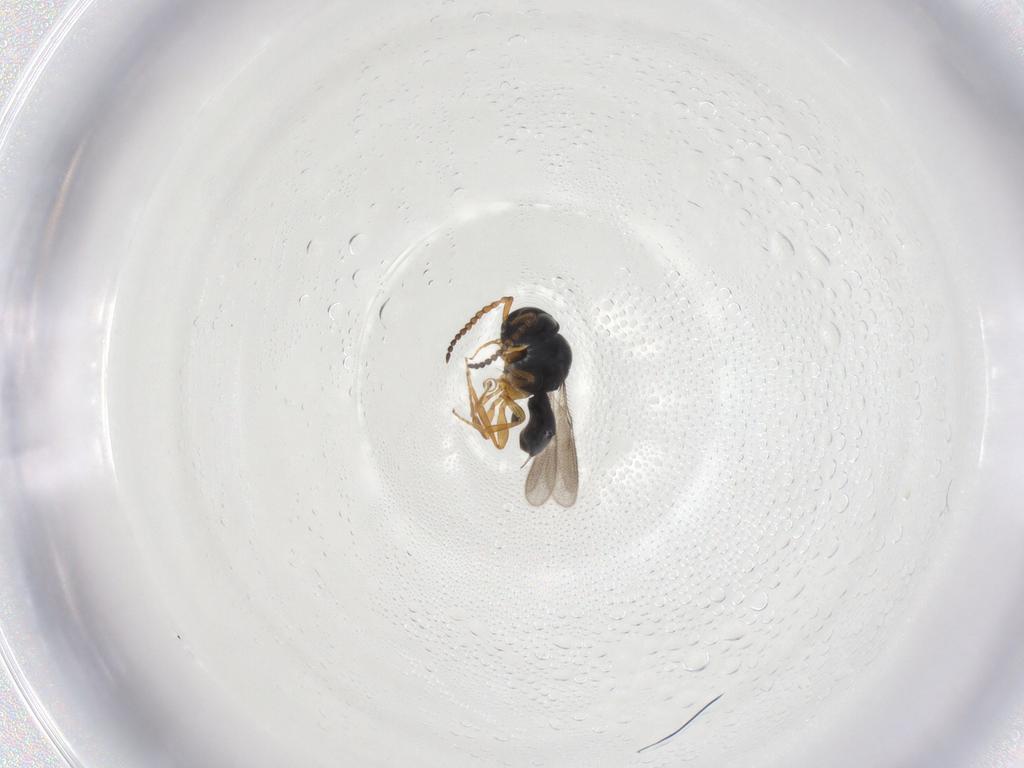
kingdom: Animalia
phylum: Arthropoda
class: Insecta
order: Hymenoptera
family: Scelionidae
